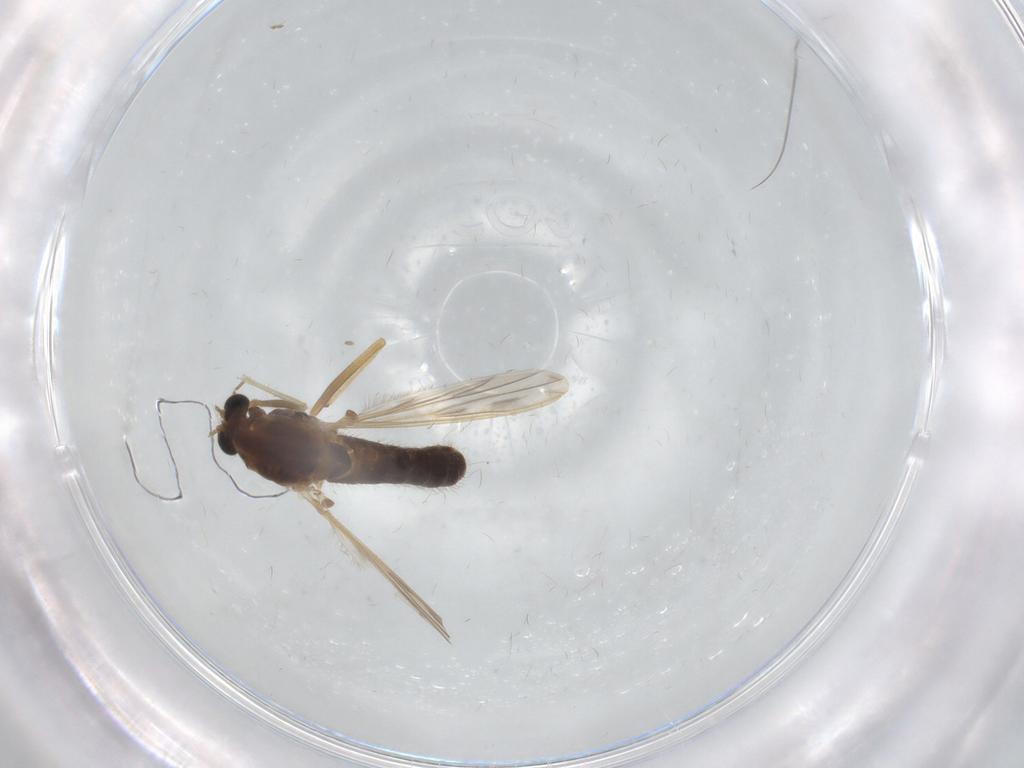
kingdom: Animalia
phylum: Arthropoda
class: Insecta
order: Diptera
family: Chironomidae
